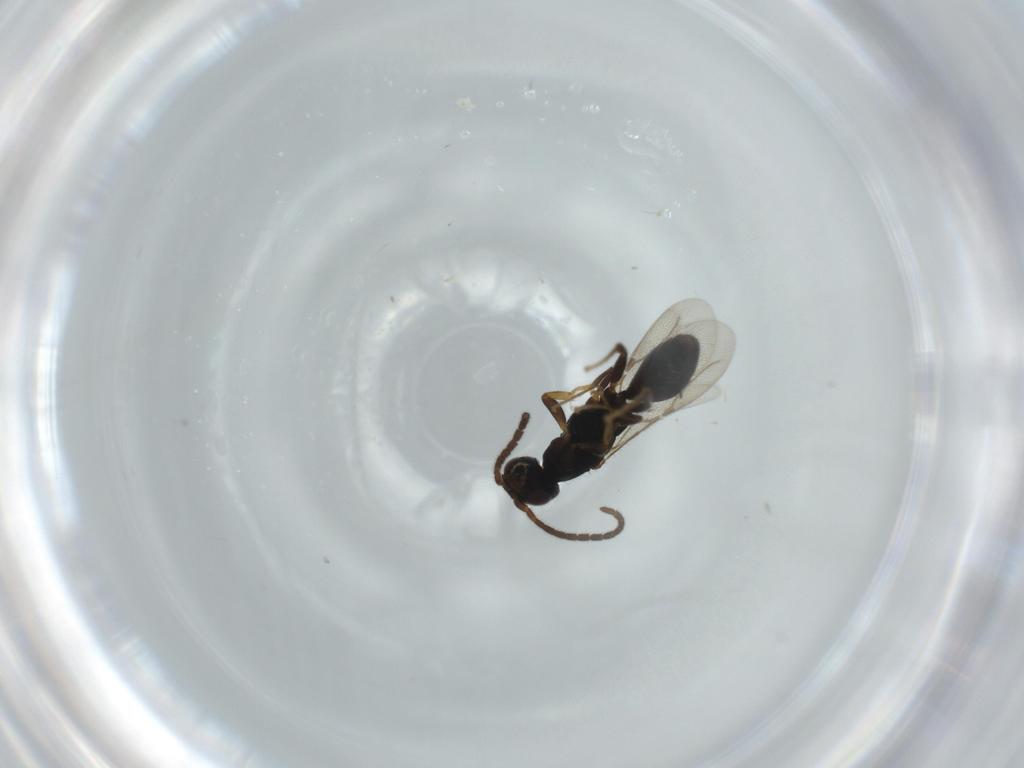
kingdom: Animalia
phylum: Arthropoda
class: Insecta
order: Hymenoptera
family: Bethylidae
